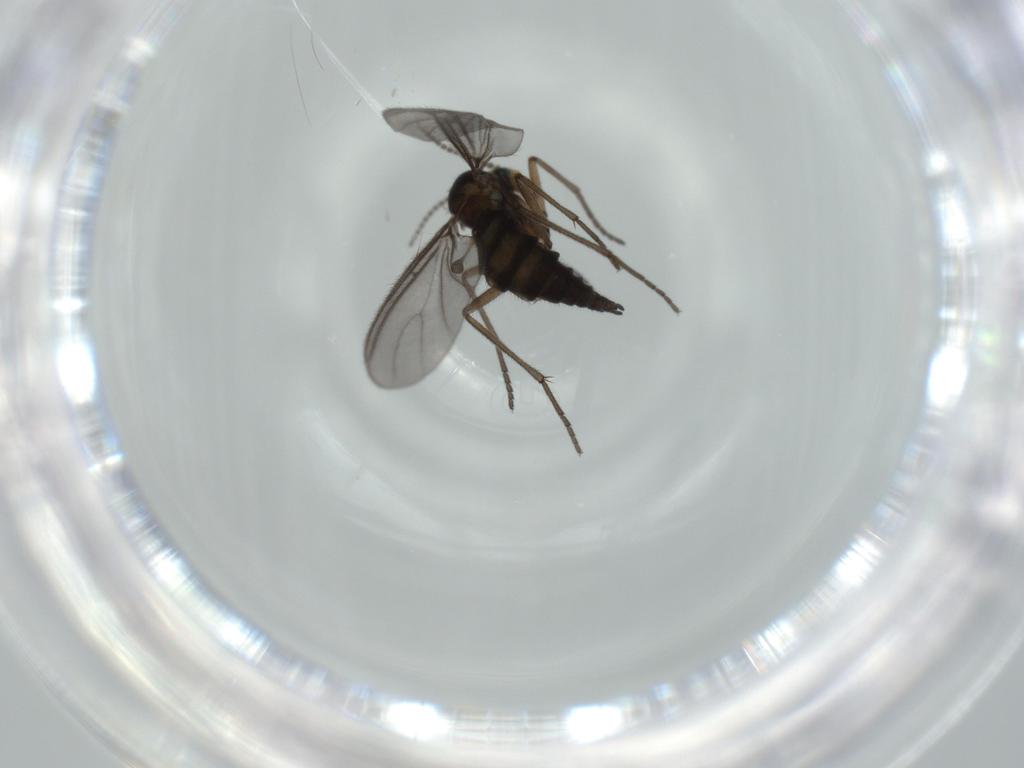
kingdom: Animalia
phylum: Arthropoda
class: Insecta
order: Diptera
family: Sciaridae
